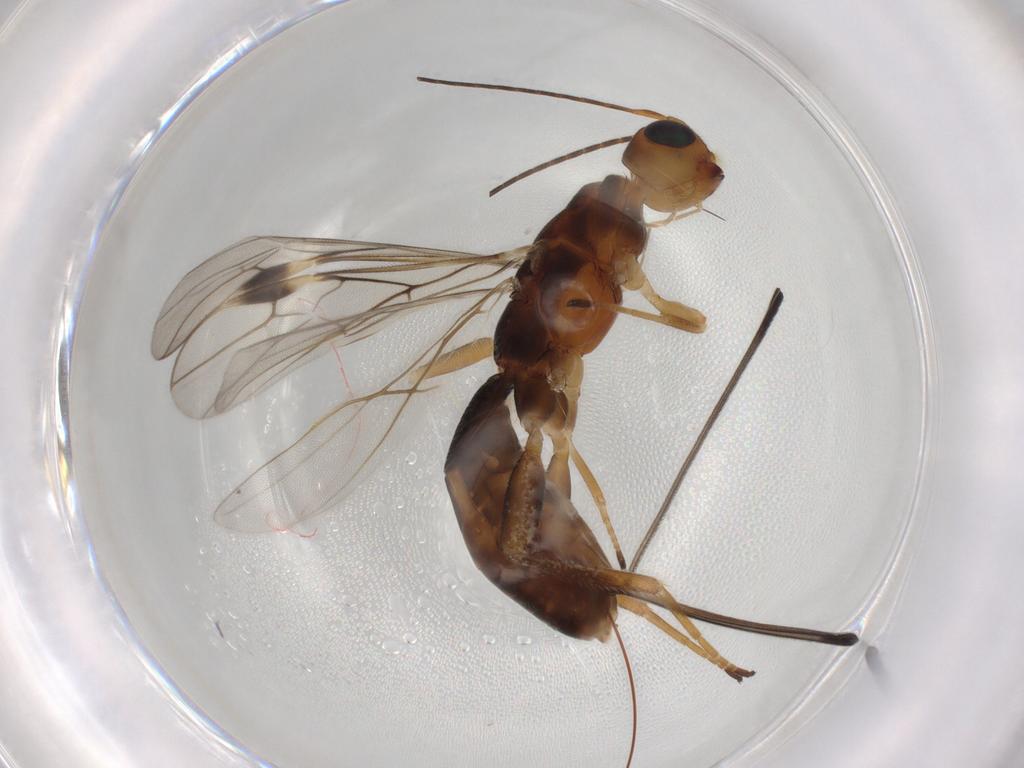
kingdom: Animalia
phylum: Arthropoda
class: Insecta
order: Hymenoptera
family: Braconidae
